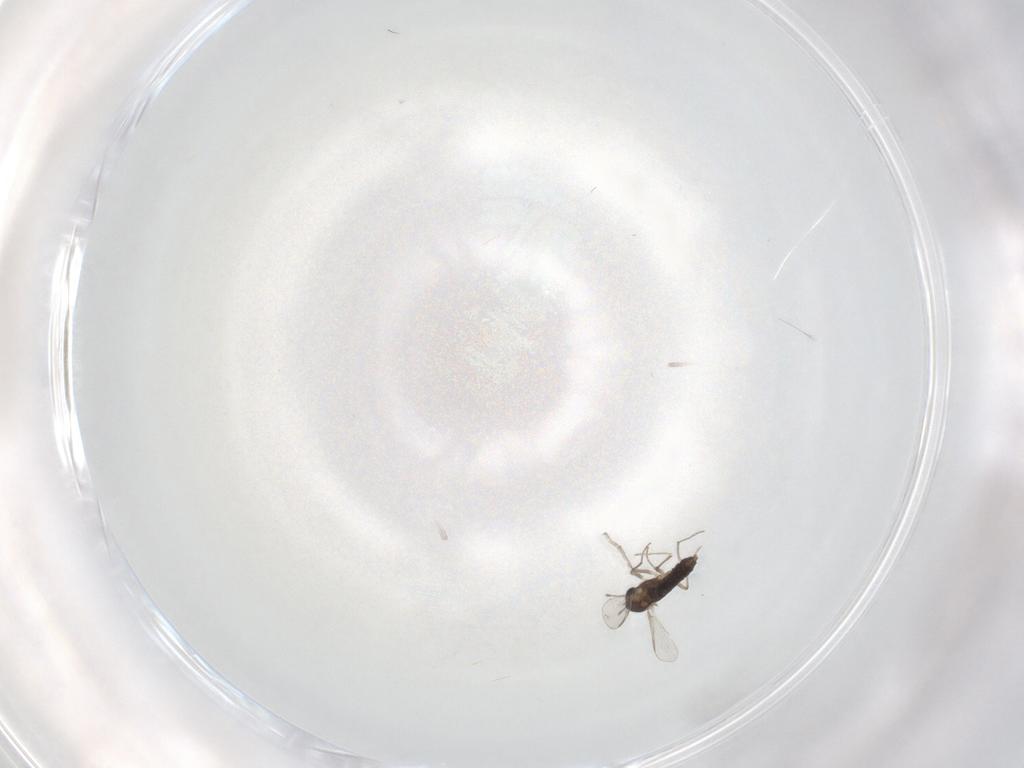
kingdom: Animalia
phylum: Arthropoda
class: Insecta
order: Diptera
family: Chironomidae
